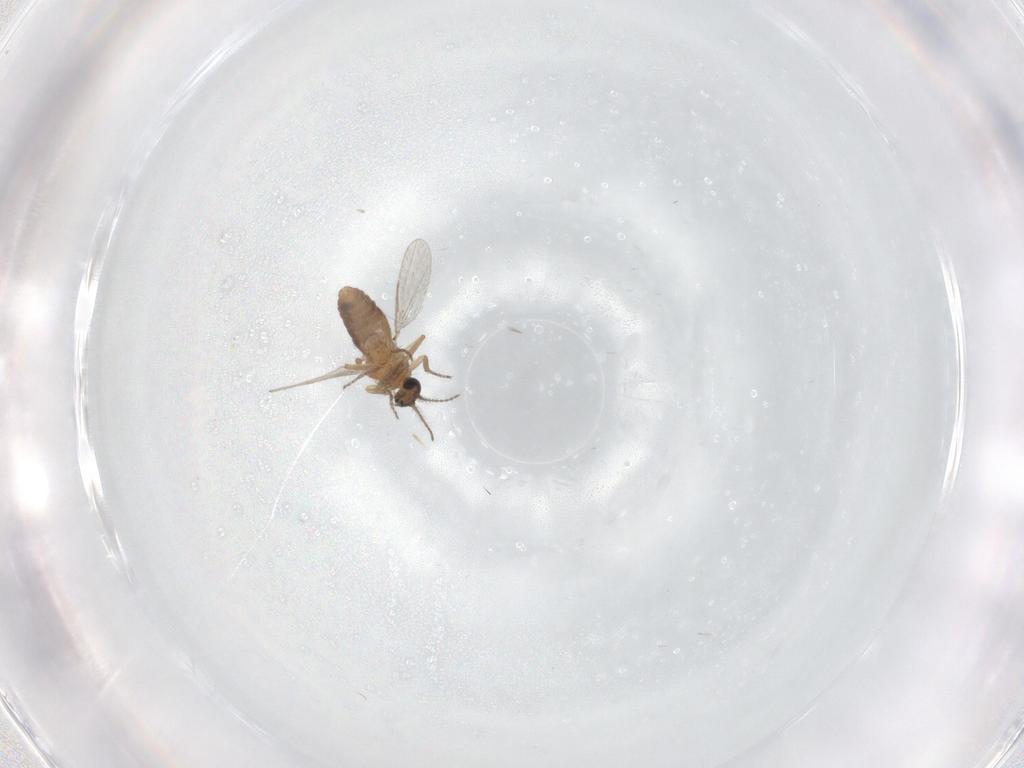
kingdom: Animalia
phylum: Arthropoda
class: Insecta
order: Diptera
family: Ceratopogonidae
